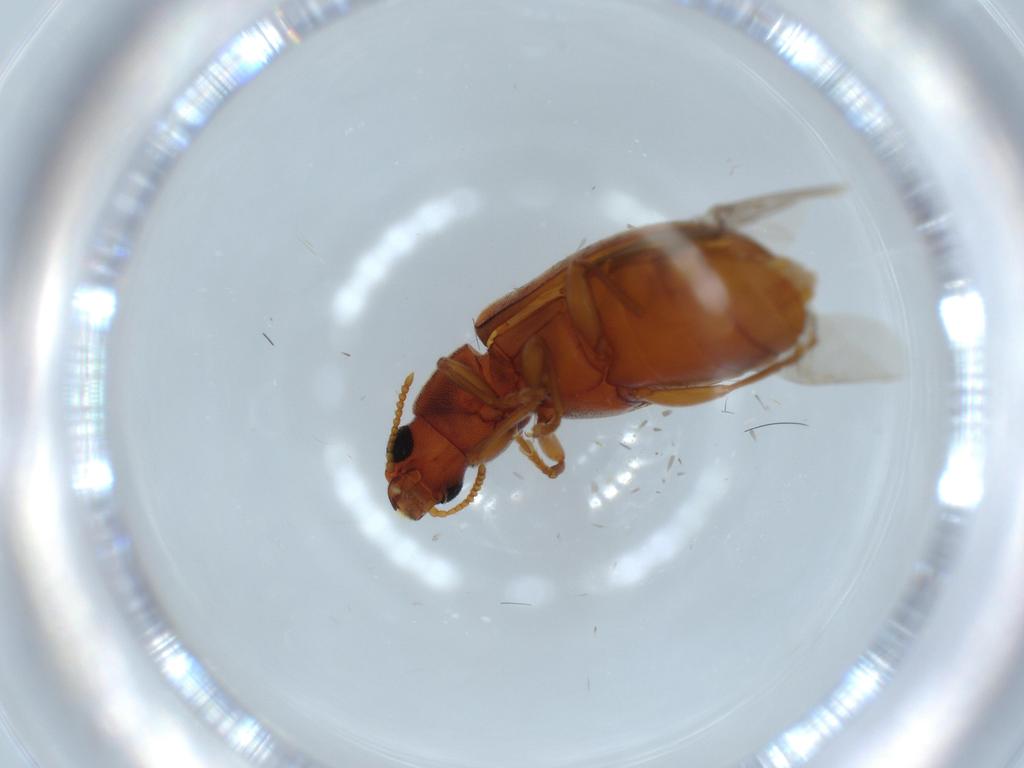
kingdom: Animalia
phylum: Arthropoda
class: Insecta
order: Coleoptera
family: Mycteridae
